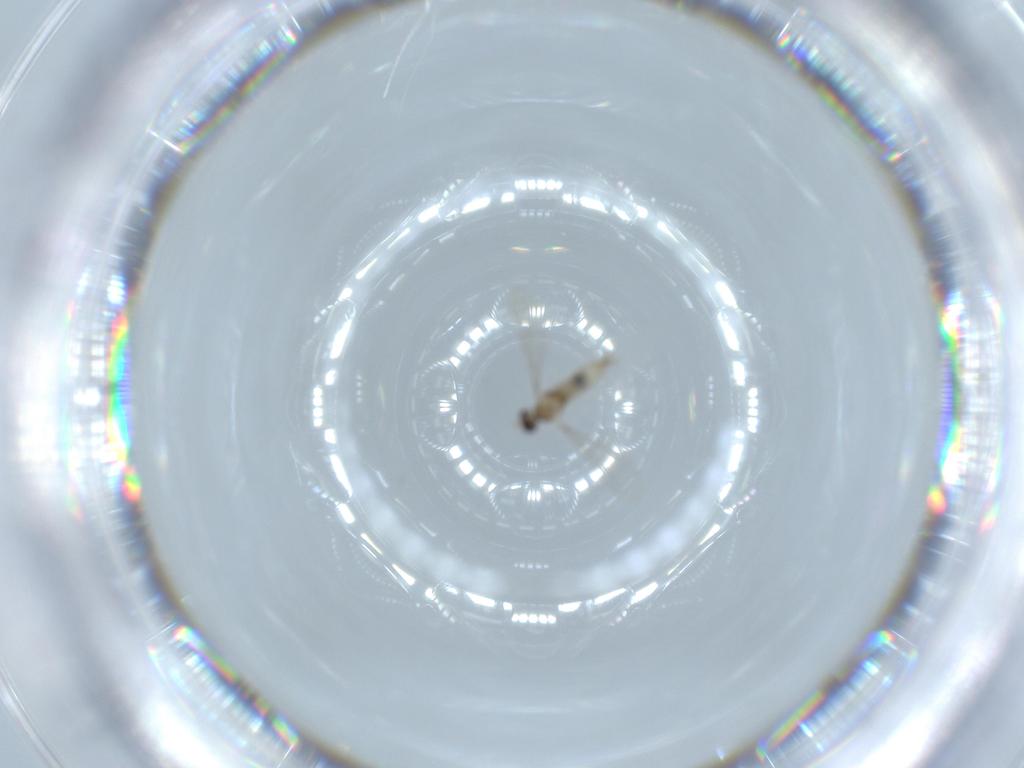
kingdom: Animalia
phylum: Arthropoda
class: Insecta
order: Diptera
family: Cecidomyiidae
